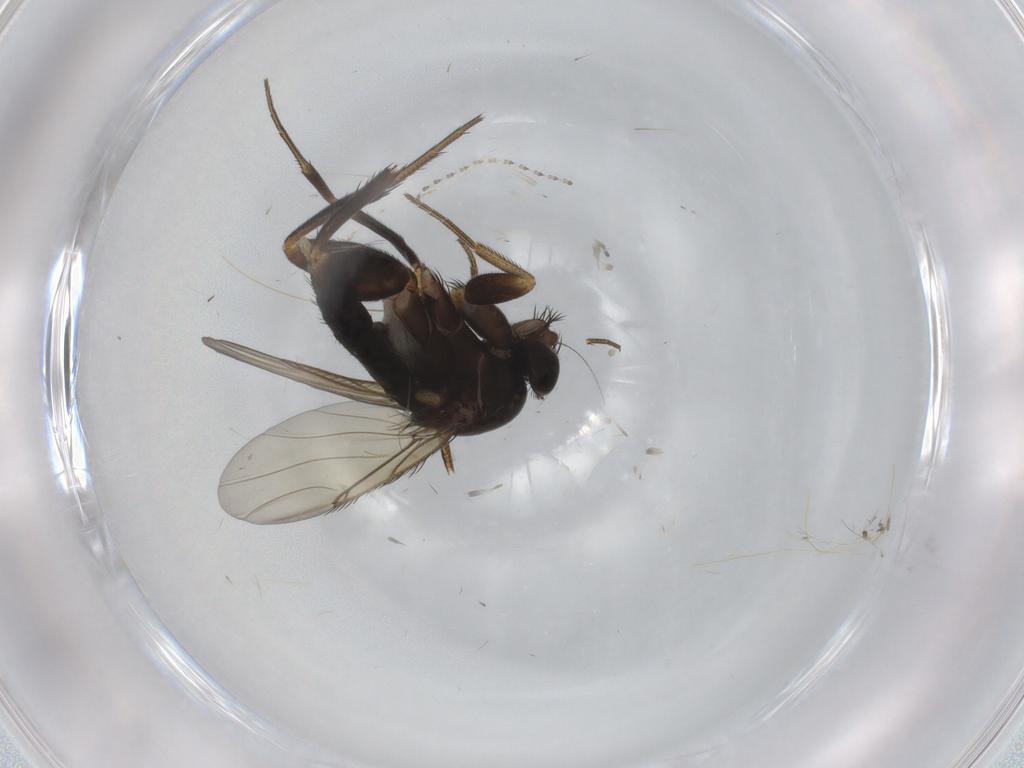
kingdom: Animalia
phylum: Arthropoda
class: Insecta
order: Diptera
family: Phoridae
